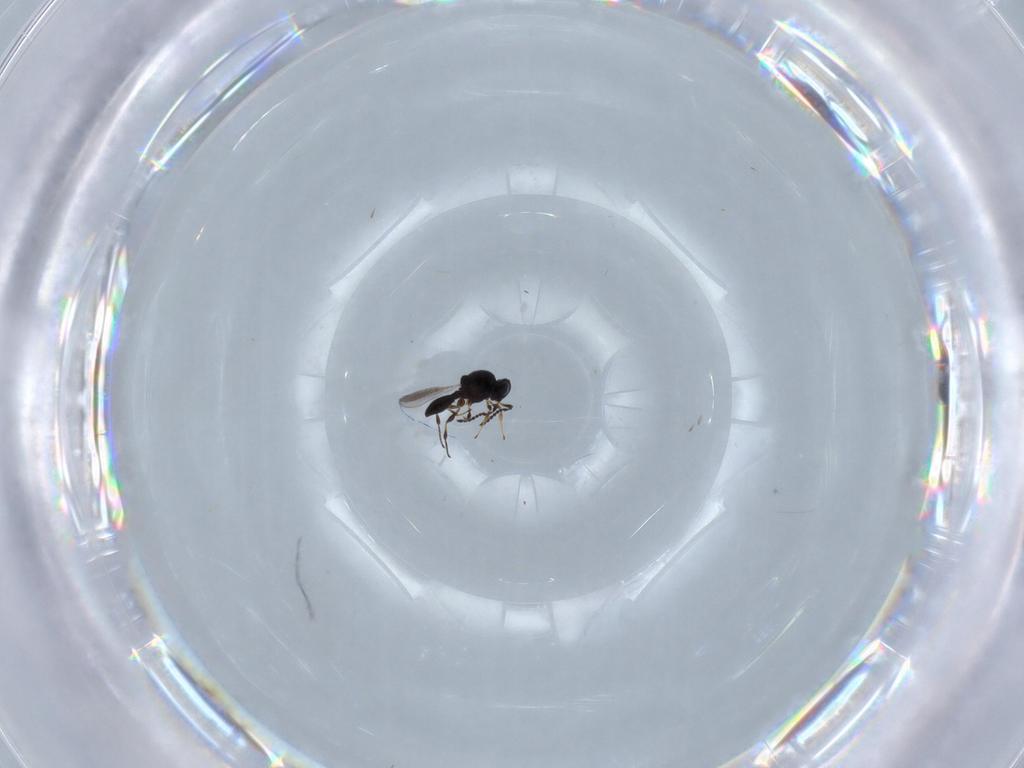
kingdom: Animalia
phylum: Arthropoda
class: Insecta
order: Hymenoptera
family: Platygastridae
